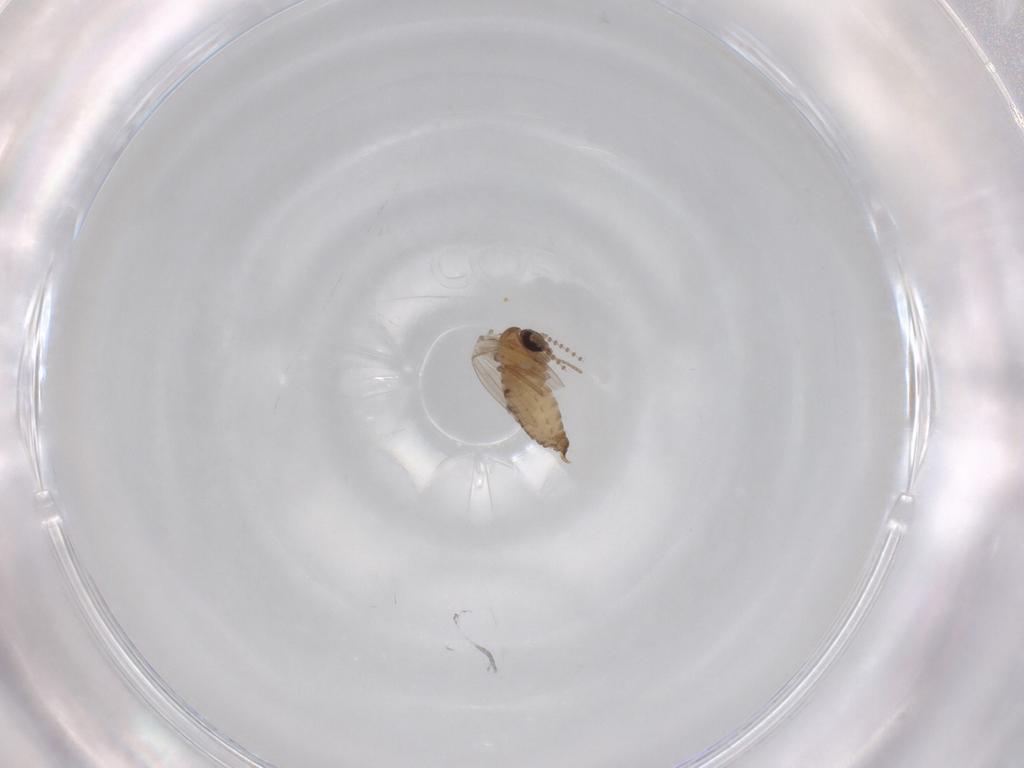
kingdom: Animalia
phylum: Arthropoda
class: Insecta
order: Diptera
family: Psychodidae
